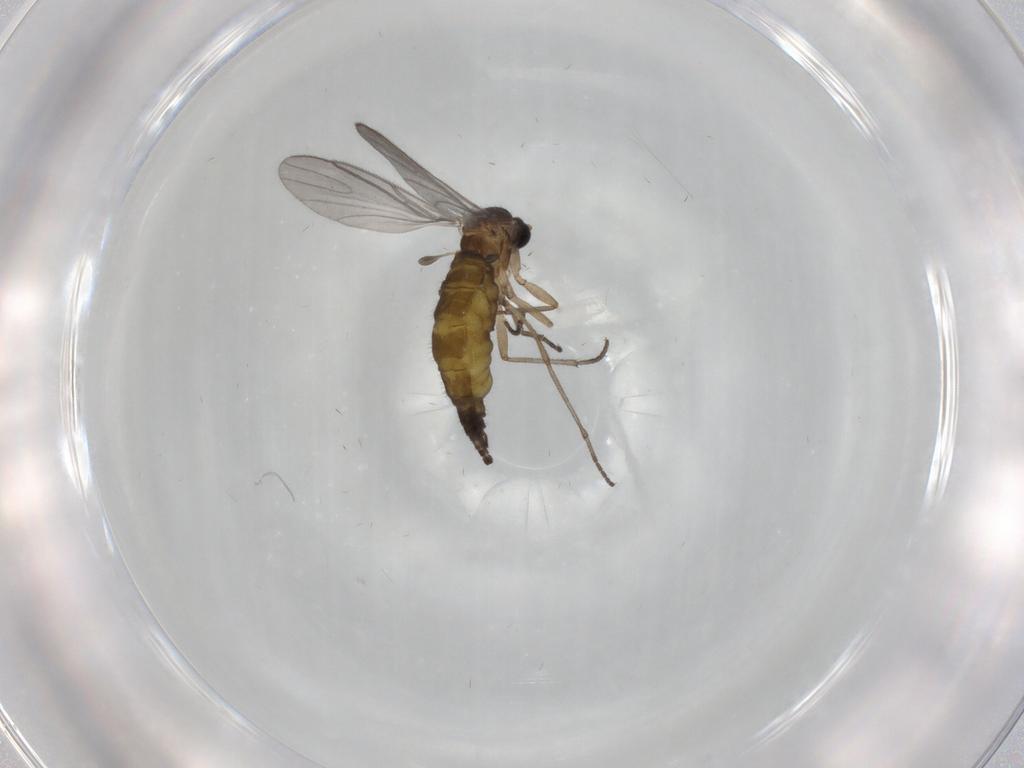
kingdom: Animalia
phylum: Arthropoda
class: Insecta
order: Diptera
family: Sciaridae
